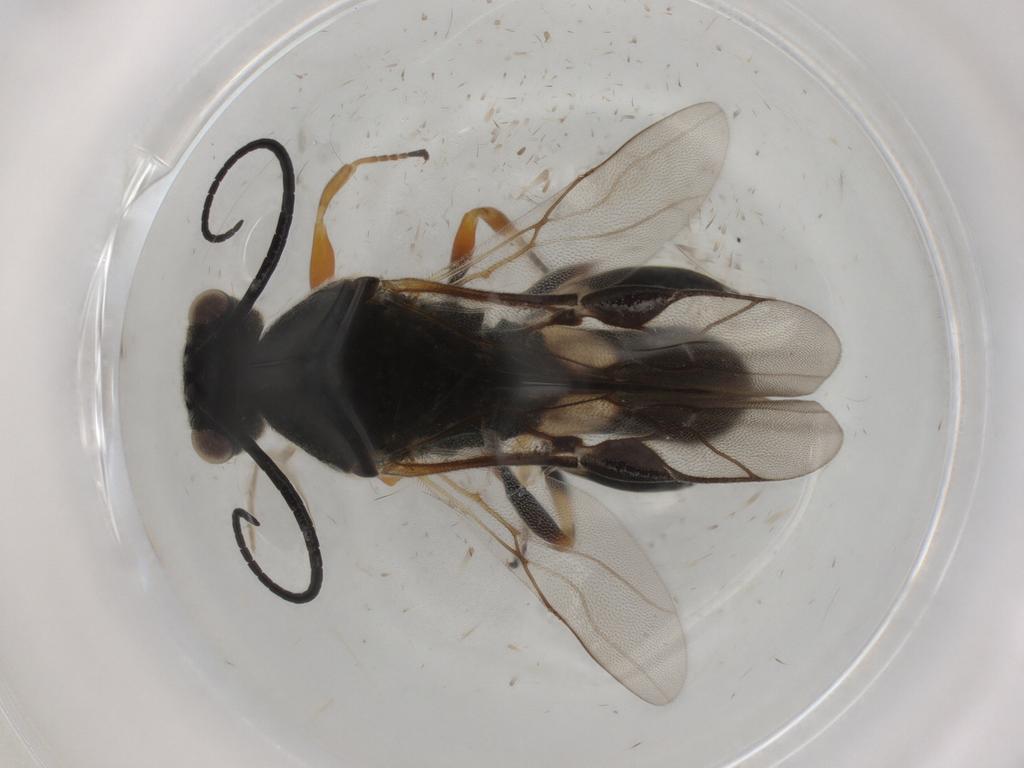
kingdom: Animalia
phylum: Arthropoda
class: Insecta
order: Hymenoptera
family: Braconidae
